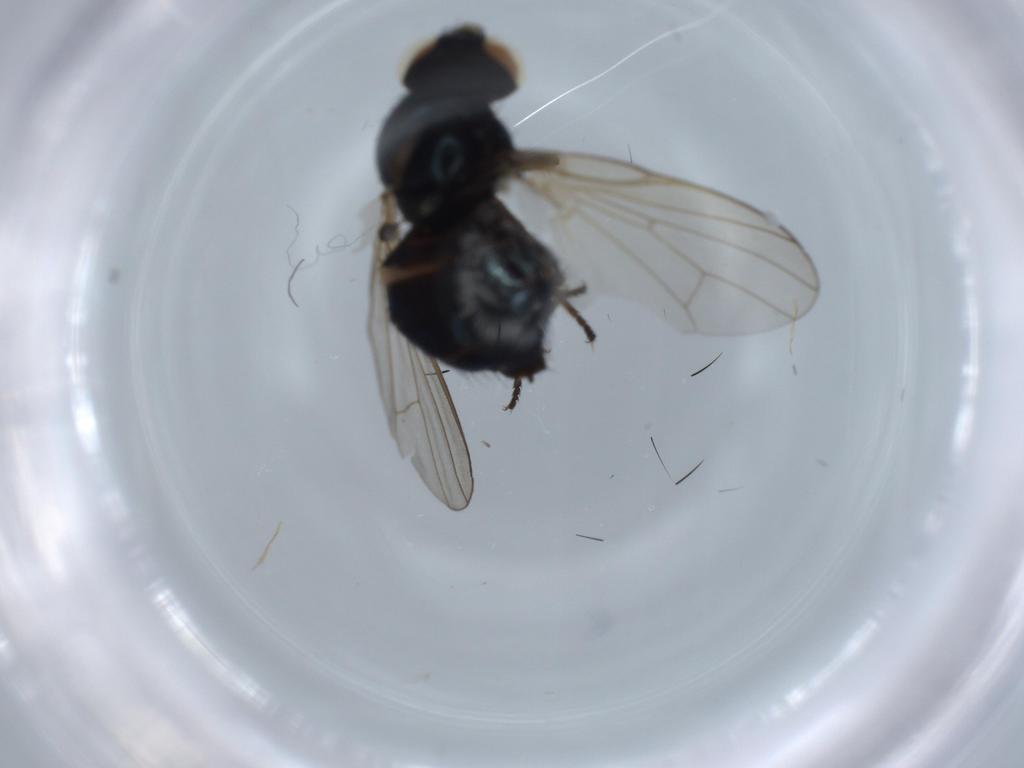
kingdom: Animalia
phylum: Arthropoda
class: Insecta
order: Diptera
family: Lonchaeidae
